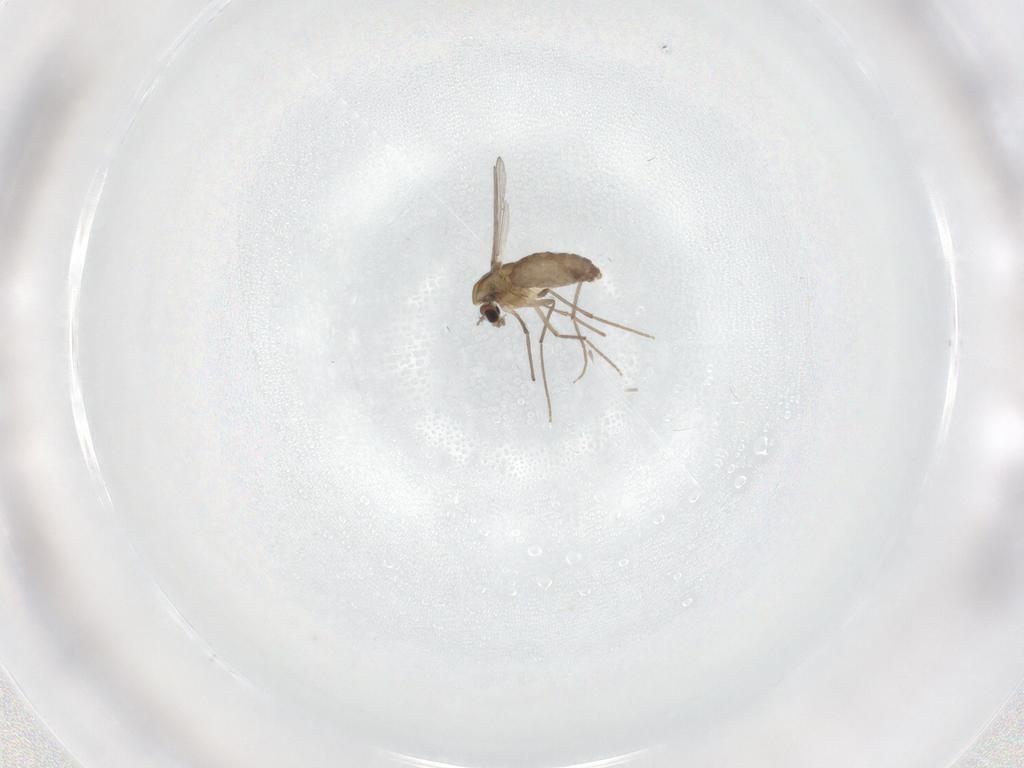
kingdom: Animalia
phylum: Arthropoda
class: Insecta
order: Diptera
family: Chironomidae
